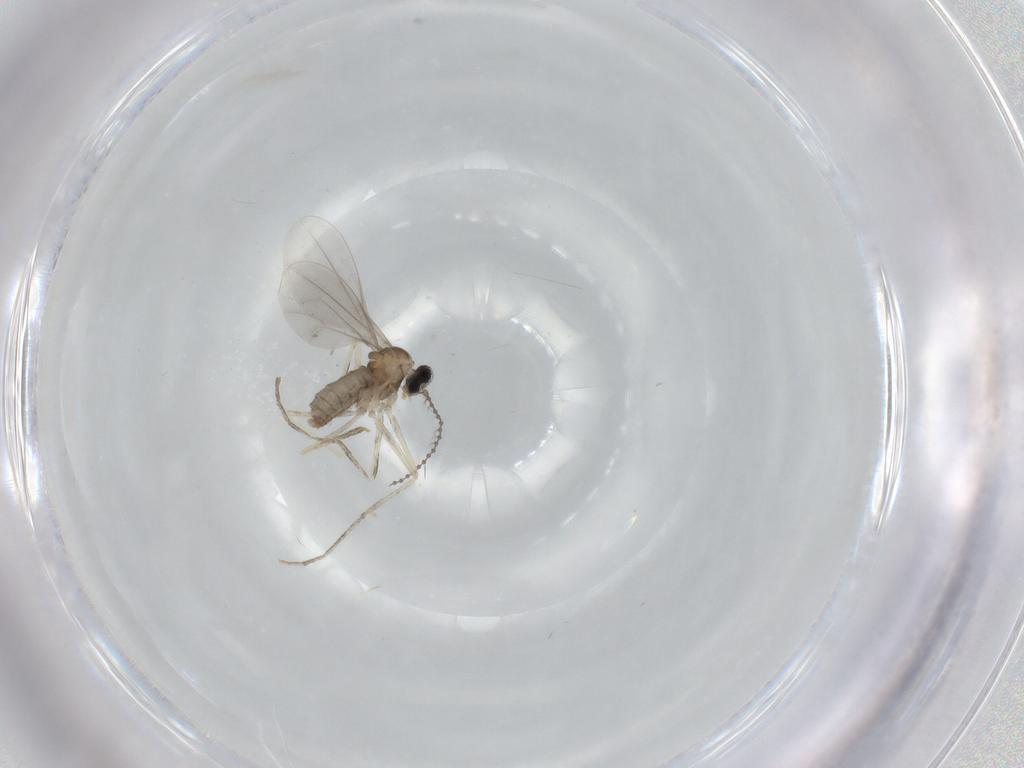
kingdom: Animalia
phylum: Arthropoda
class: Insecta
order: Diptera
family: Cecidomyiidae
